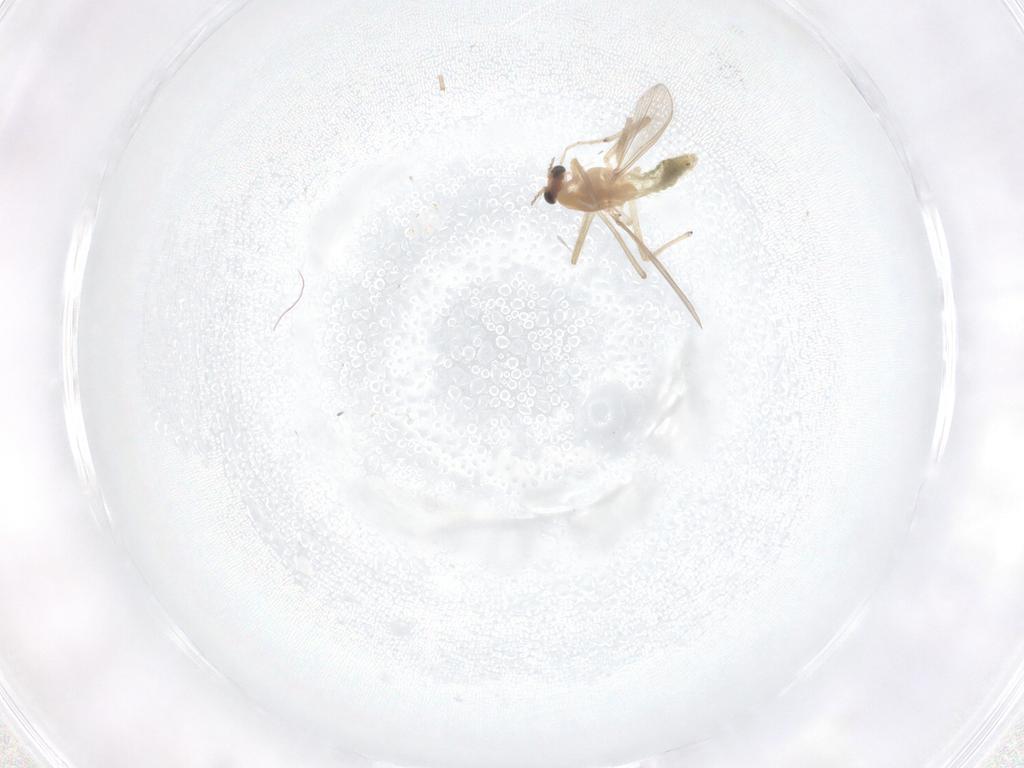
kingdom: Animalia
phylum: Arthropoda
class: Insecta
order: Diptera
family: Chironomidae
